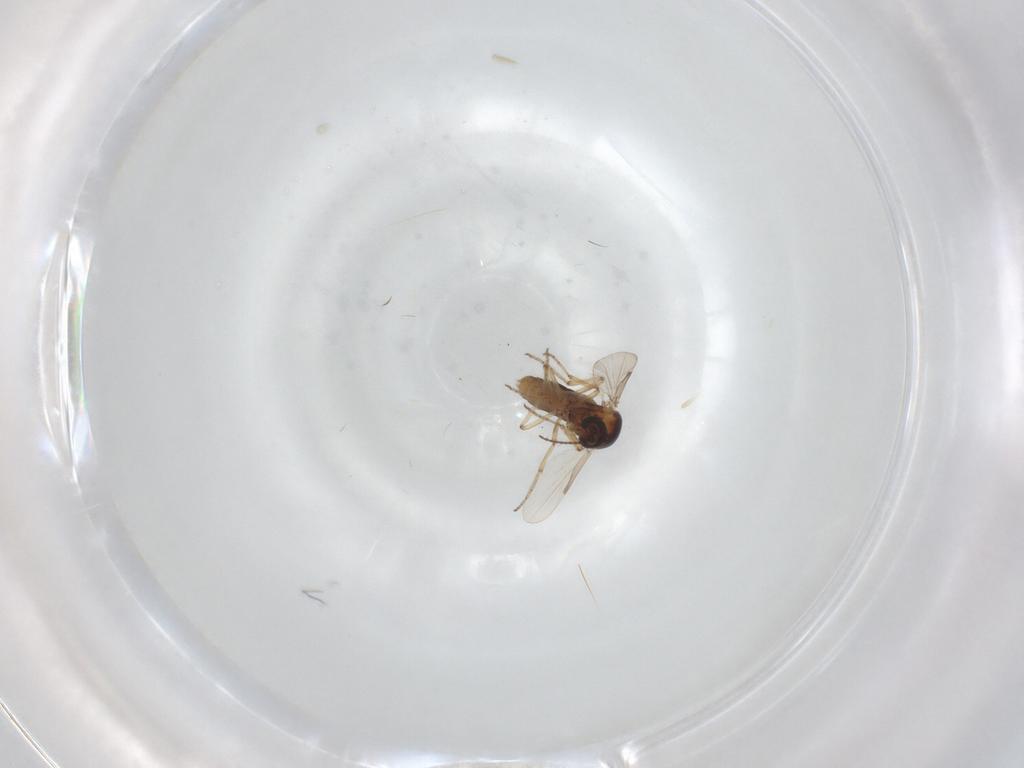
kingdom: Animalia
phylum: Arthropoda
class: Insecta
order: Diptera
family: Ceratopogonidae
